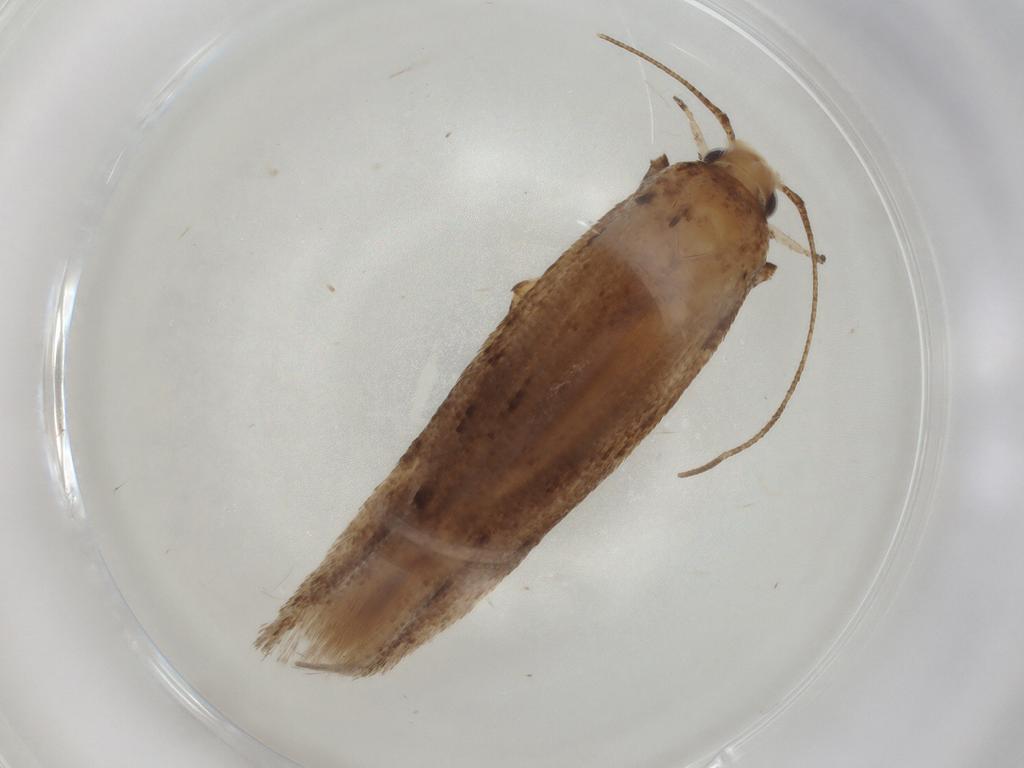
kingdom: Animalia
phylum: Arthropoda
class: Insecta
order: Lepidoptera
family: Gelechiidae
